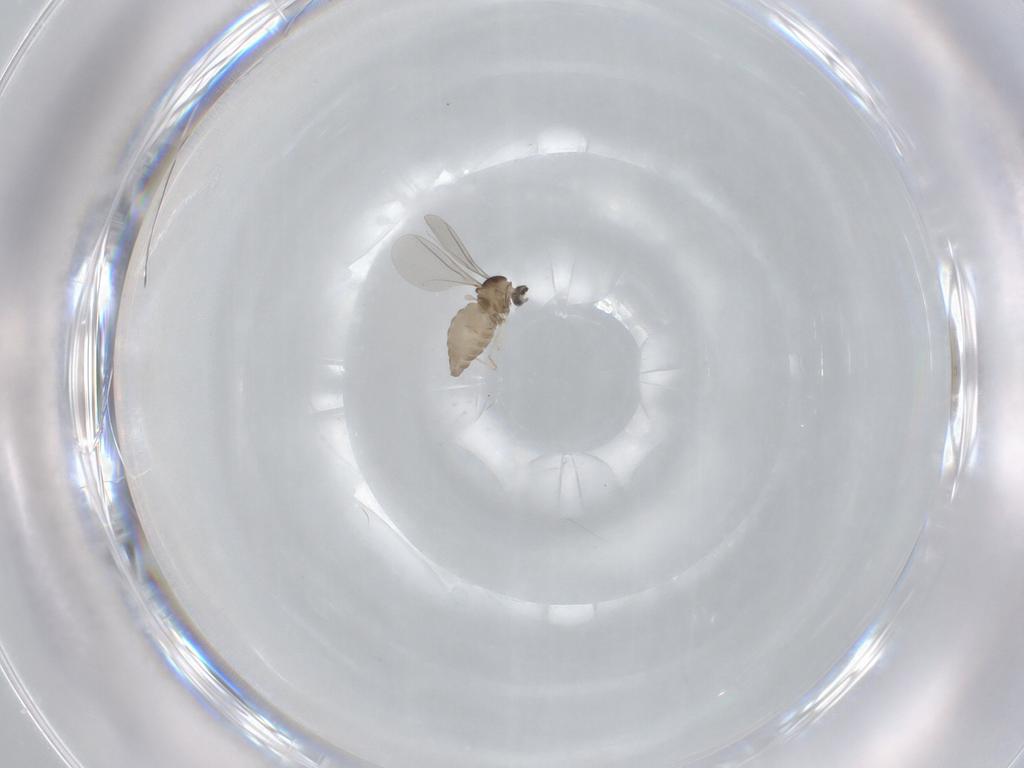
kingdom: Animalia
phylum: Arthropoda
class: Insecta
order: Diptera
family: Cecidomyiidae
